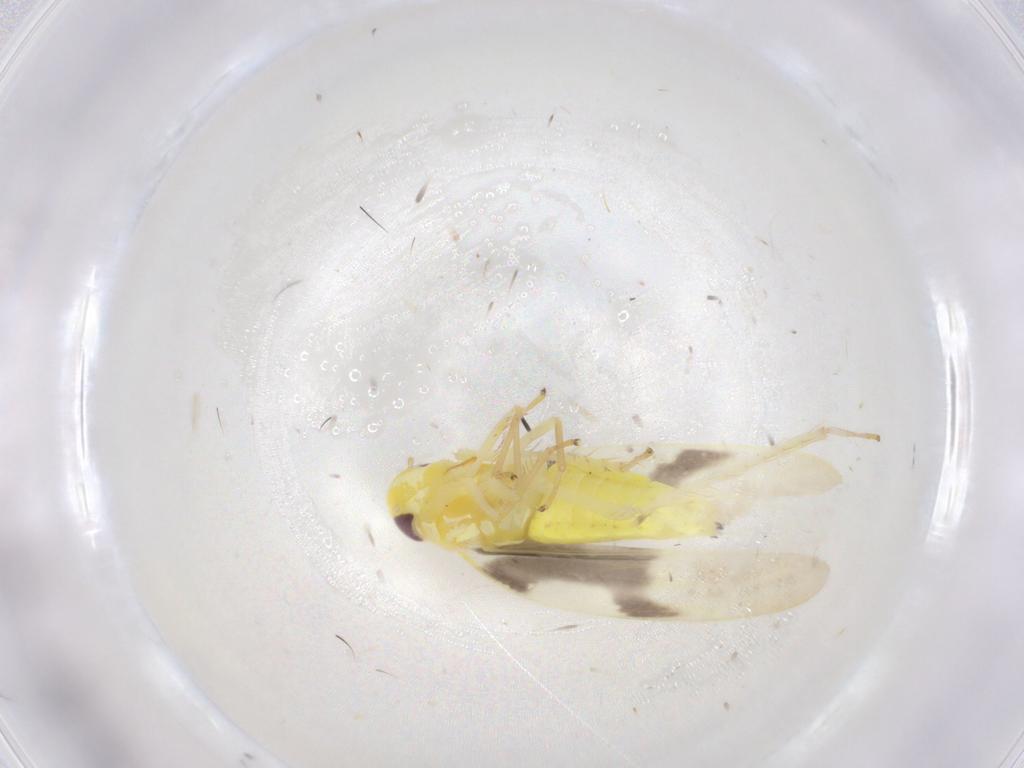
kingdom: Animalia
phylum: Arthropoda
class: Insecta
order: Hemiptera
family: Cicadellidae
